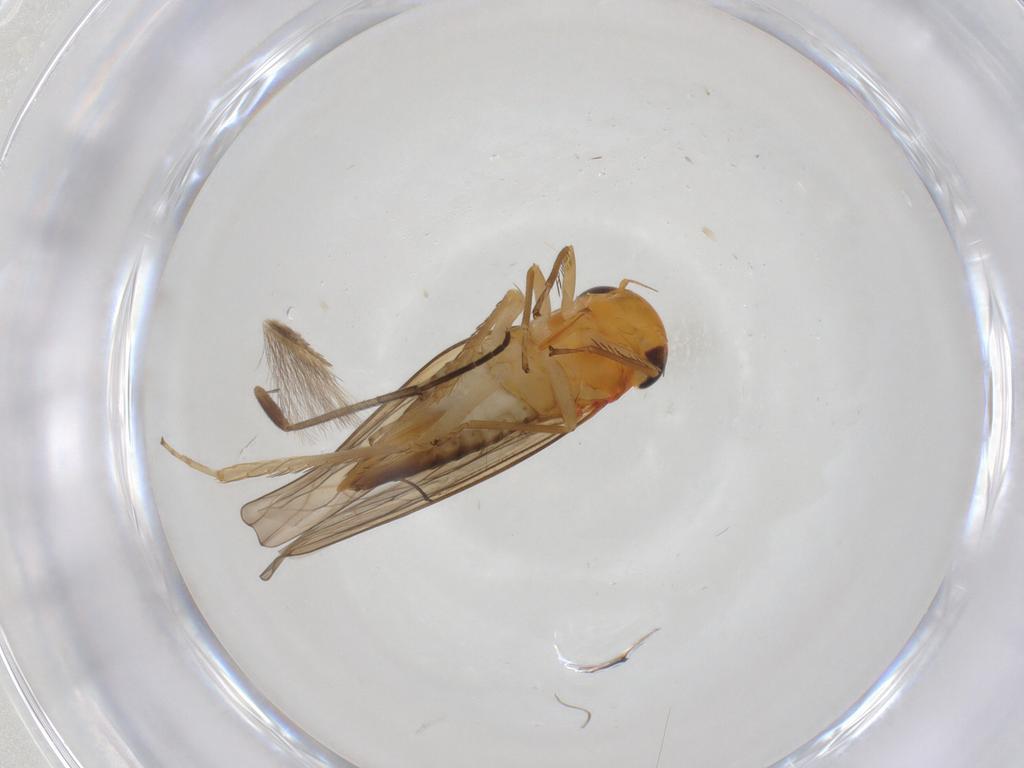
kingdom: Animalia
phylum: Arthropoda
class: Insecta
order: Hemiptera
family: Cicadellidae
